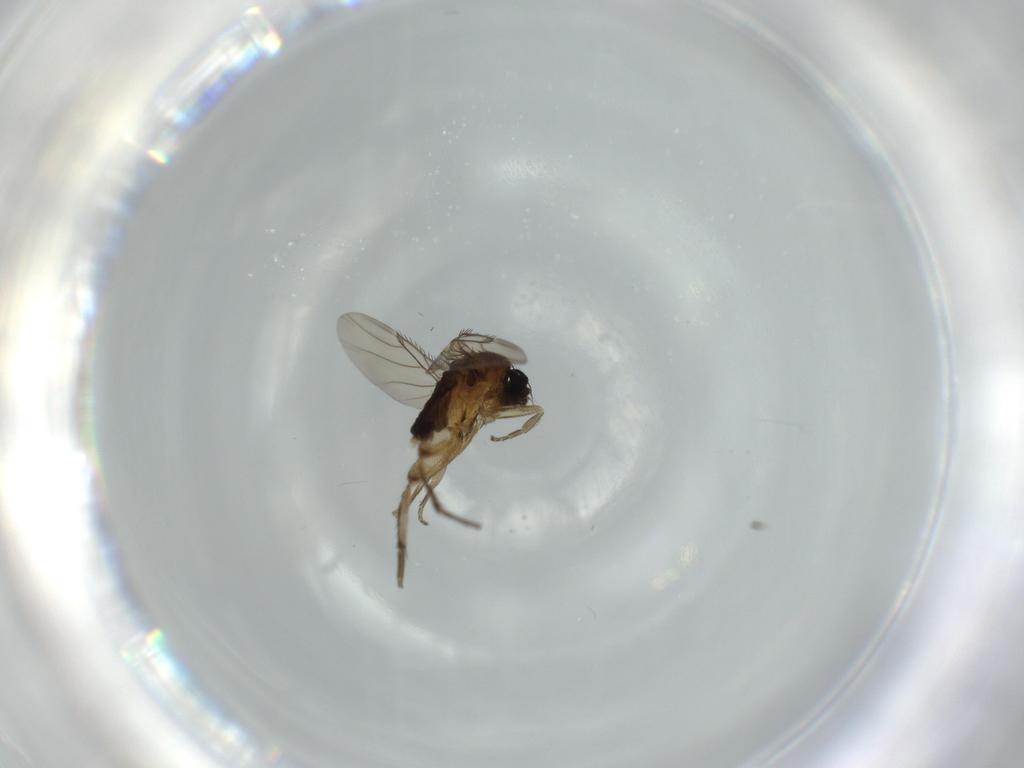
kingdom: Animalia
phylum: Arthropoda
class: Insecta
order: Diptera
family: Phoridae
